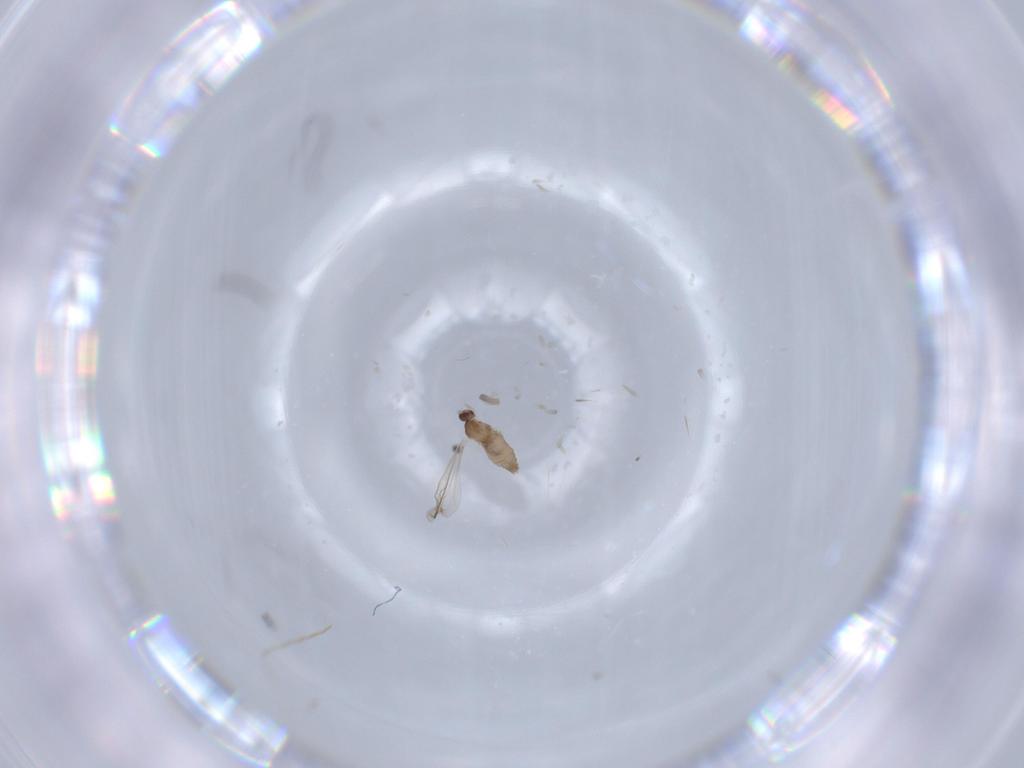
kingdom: Animalia
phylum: Arthropoda
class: Insecta
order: Diptera
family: Cecidomyiidae
